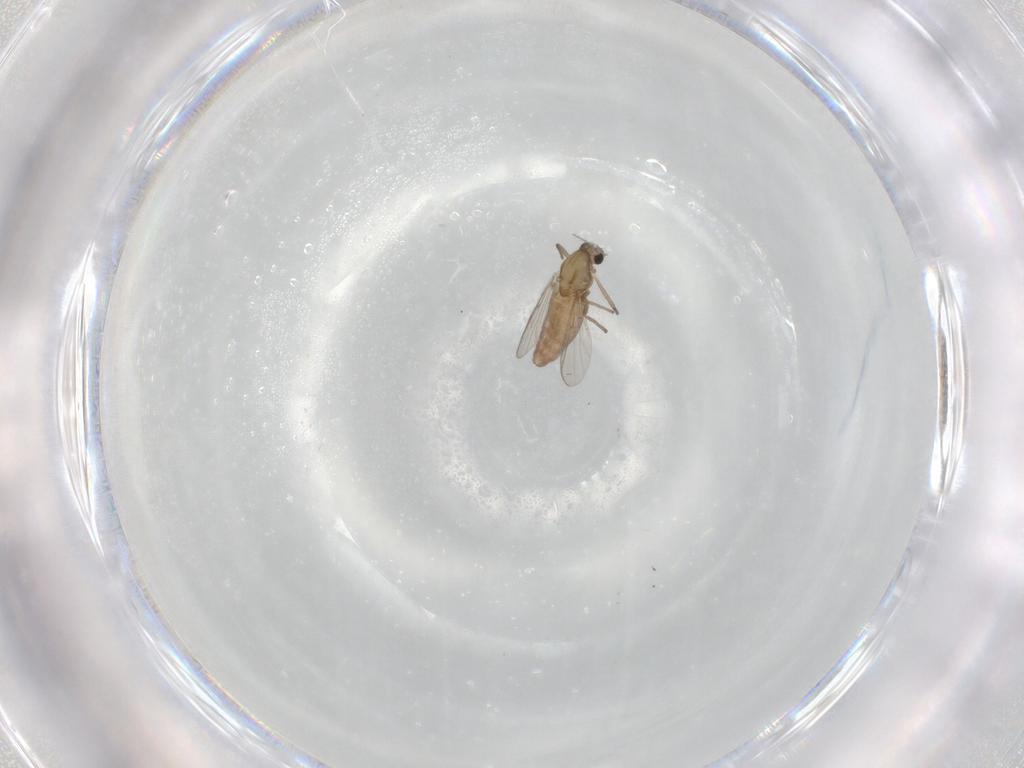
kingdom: Animalia
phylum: Arthropoda
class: Insecta
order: Diptera
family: Chironomidae
